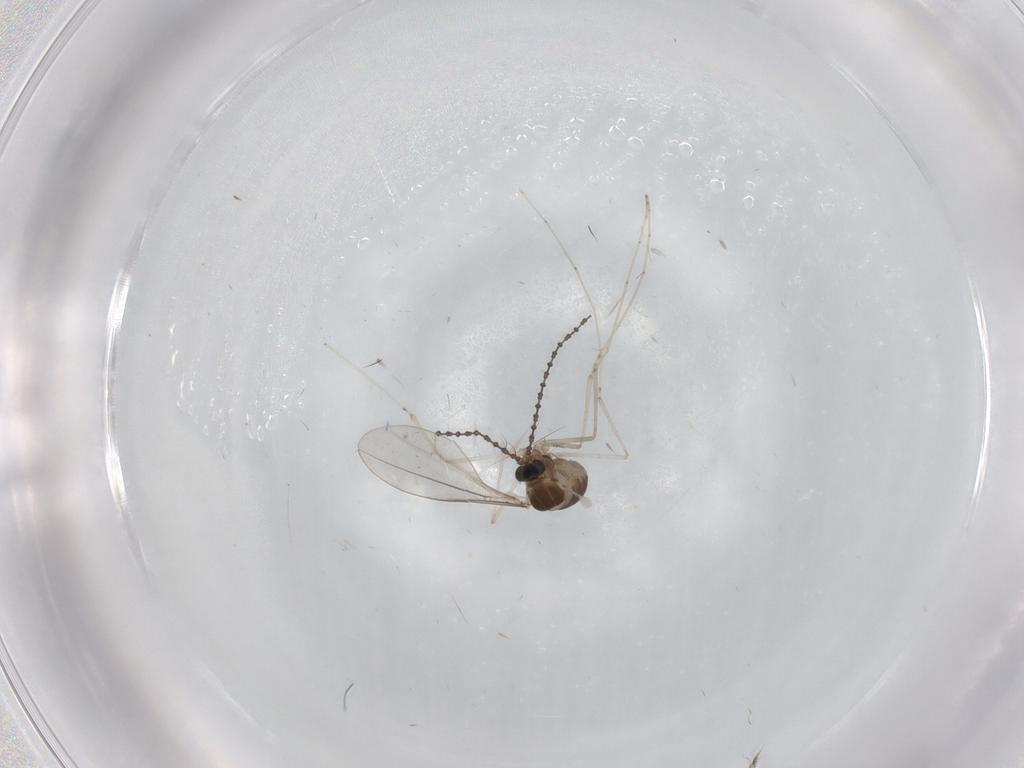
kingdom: Animalia
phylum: Arthropoda
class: Insecta
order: Diptera
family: Cecidomyiidae
